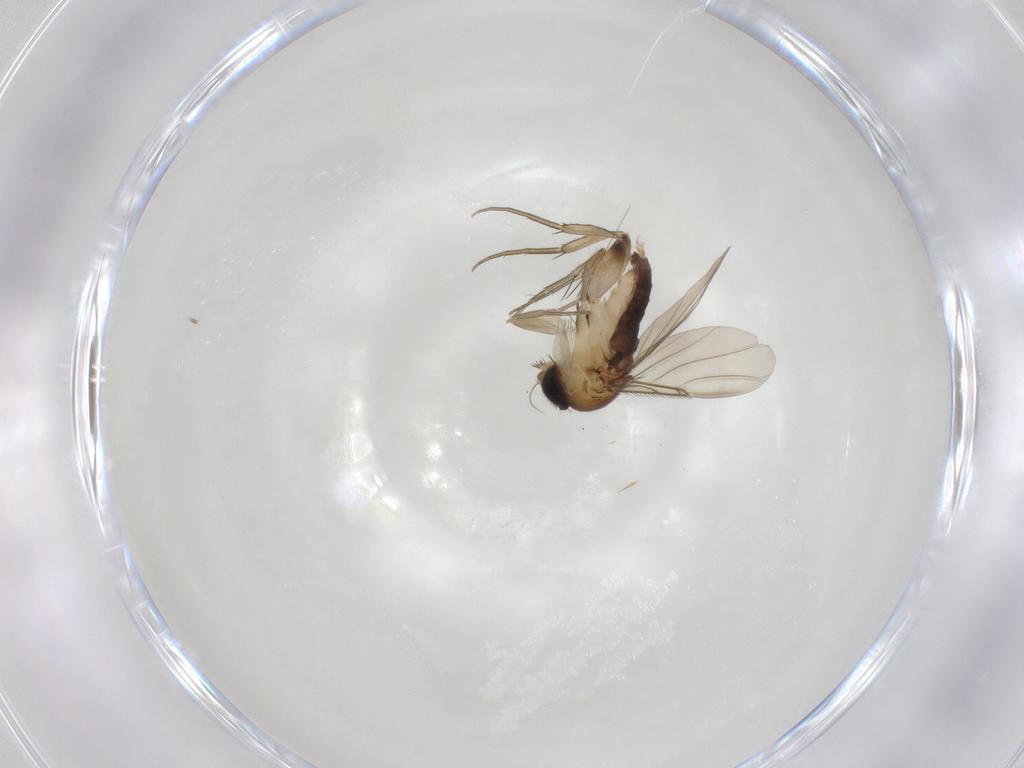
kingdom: Animalia
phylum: Arthropoda
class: Insecta
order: Diptera
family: Phoridae
